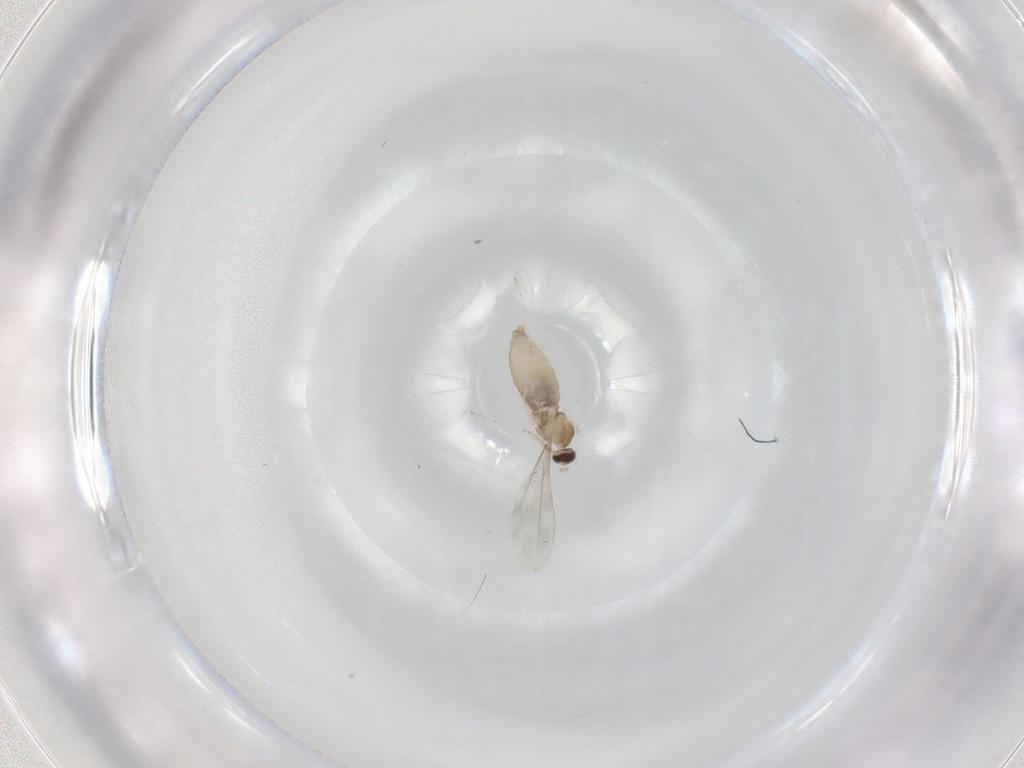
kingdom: Animalia
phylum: Arthropoda
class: Insecta
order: Diptera
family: Cecidomyiidae
